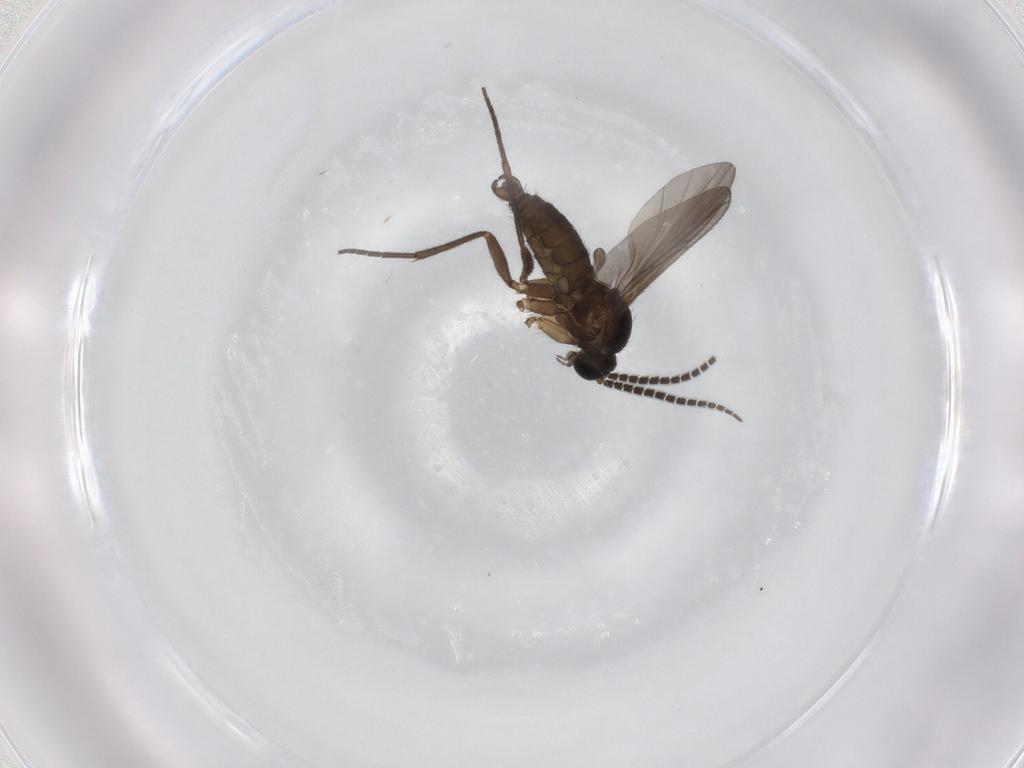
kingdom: Animalia
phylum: Arthropoda
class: Insecta
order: Diptera
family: Sciaridae
